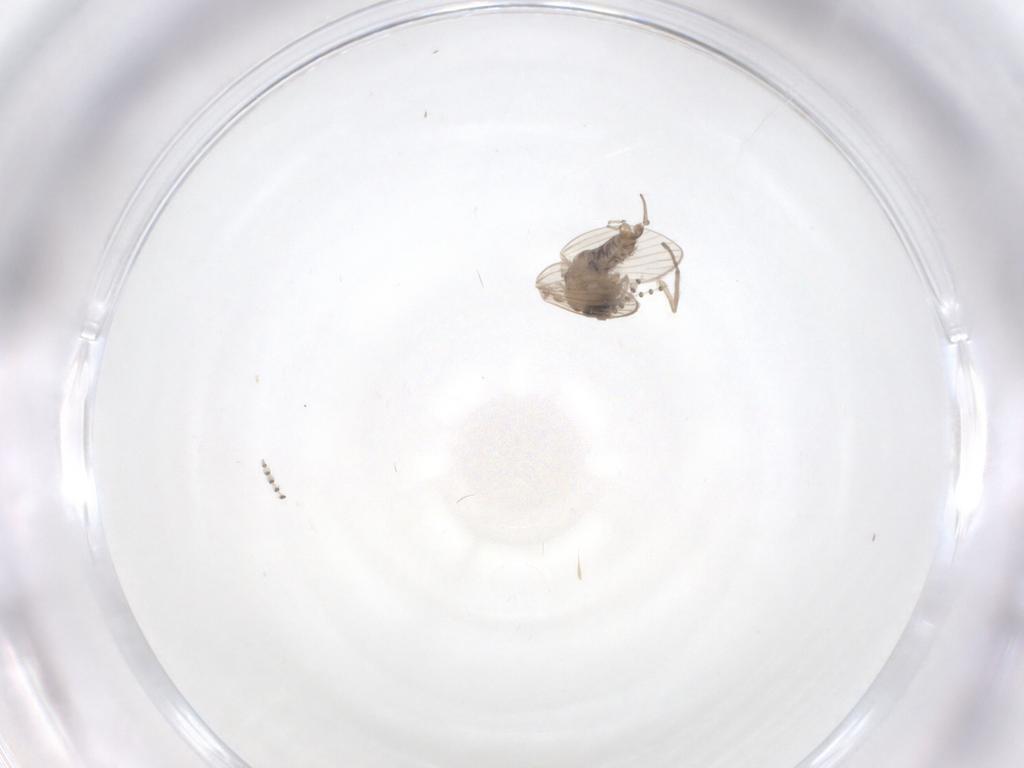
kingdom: Animalia
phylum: Arthropoda
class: Insecta
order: Diptera
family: Psychodidae
